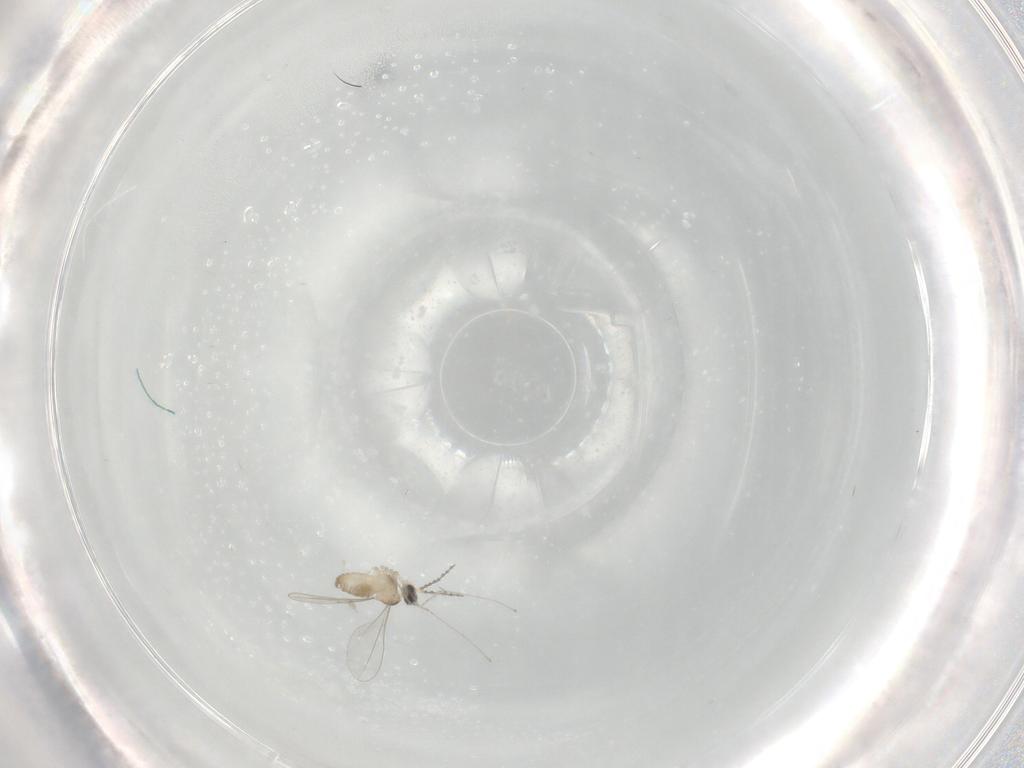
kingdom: Animalia
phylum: Arthropoda
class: Insecta
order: Diptera
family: Cecidomyiidae
